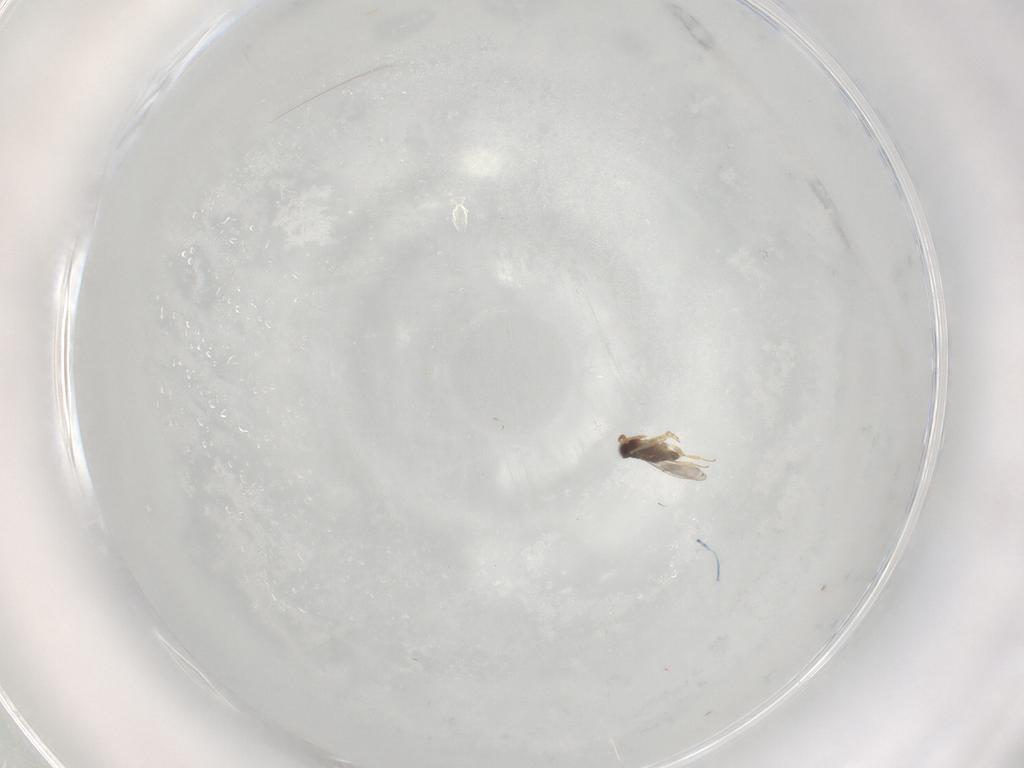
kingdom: Animalia
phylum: Arthropoda
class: Insecta
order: Hymenoptera
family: Encyrtidae
